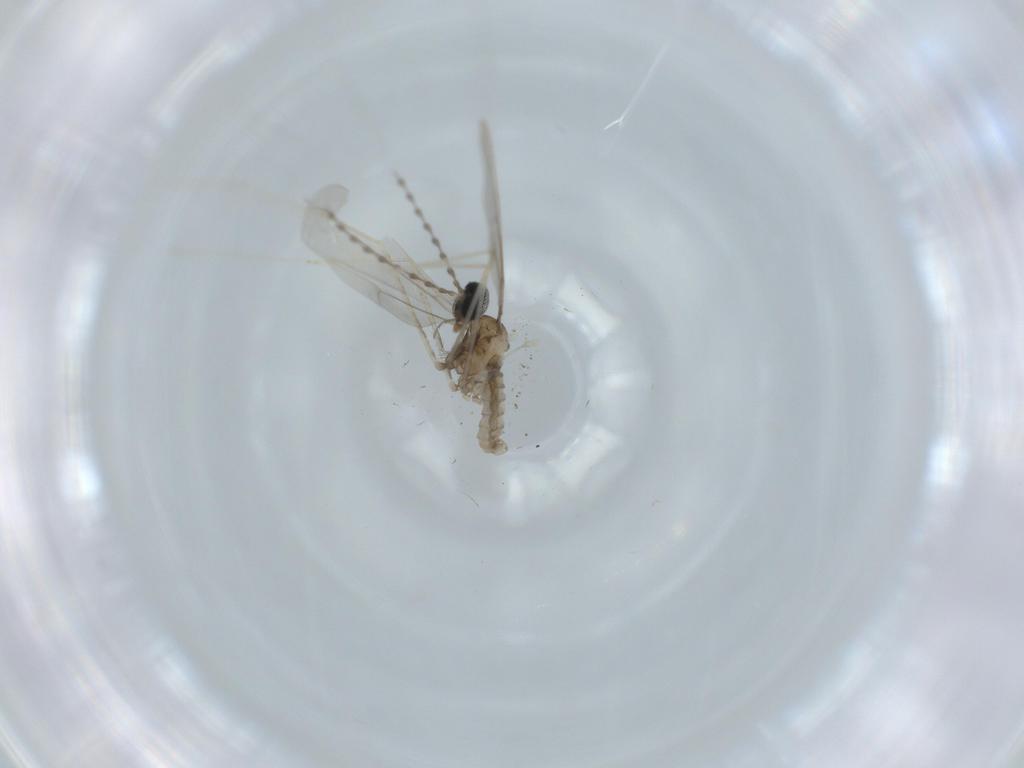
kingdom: Animalia
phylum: Arthropoda
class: Insecta
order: Diptera
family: Cecidomyiidae
